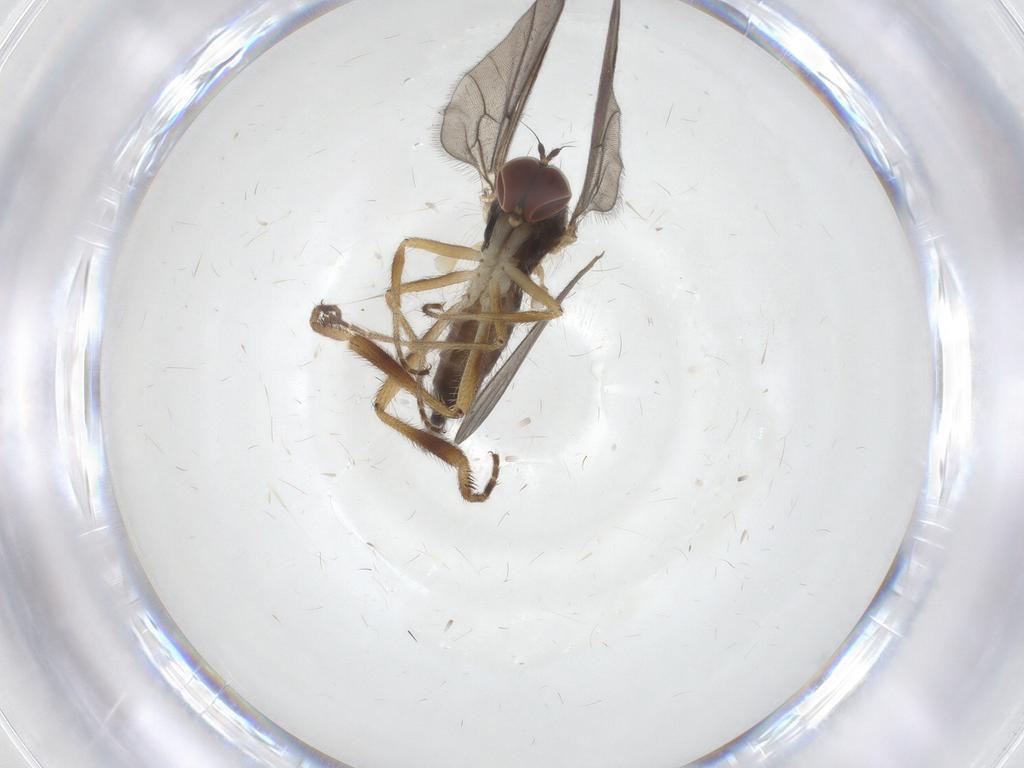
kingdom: Animalia
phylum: Arthropoda
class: Insecta
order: Diptera
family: Hybotidae
